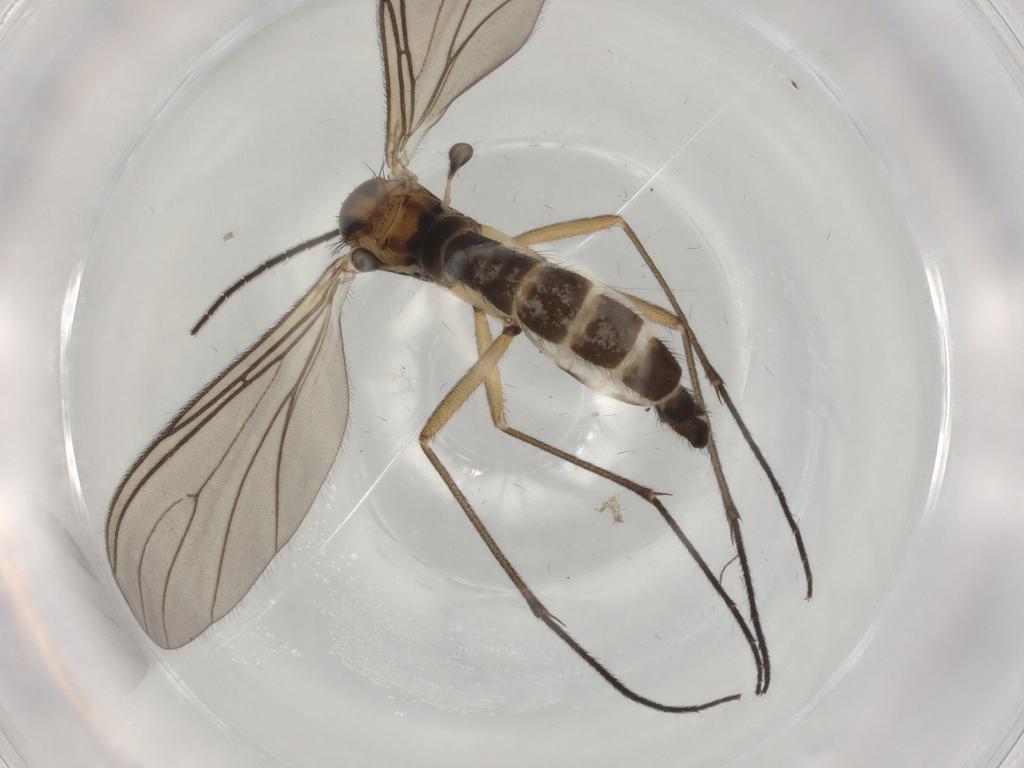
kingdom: Animalia
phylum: Arthropoda
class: Insecta
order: Diptera
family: Sciaridae
